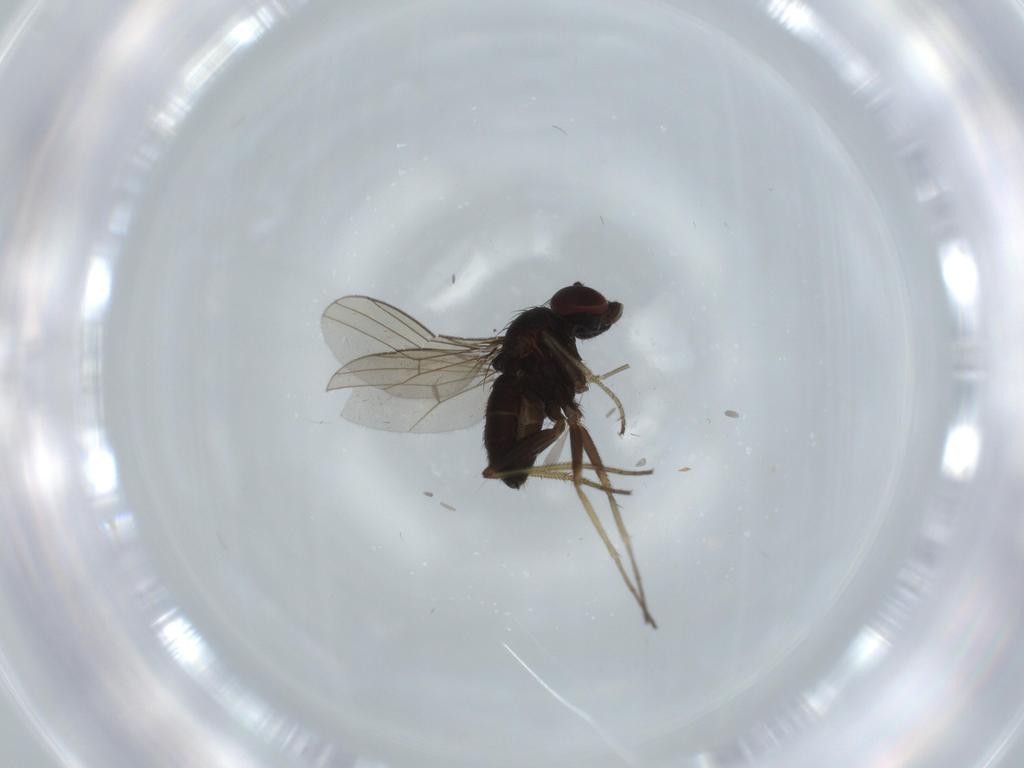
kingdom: Animalia
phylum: Arthropoda
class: Insecta
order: Diptera
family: Dolichopodidae
